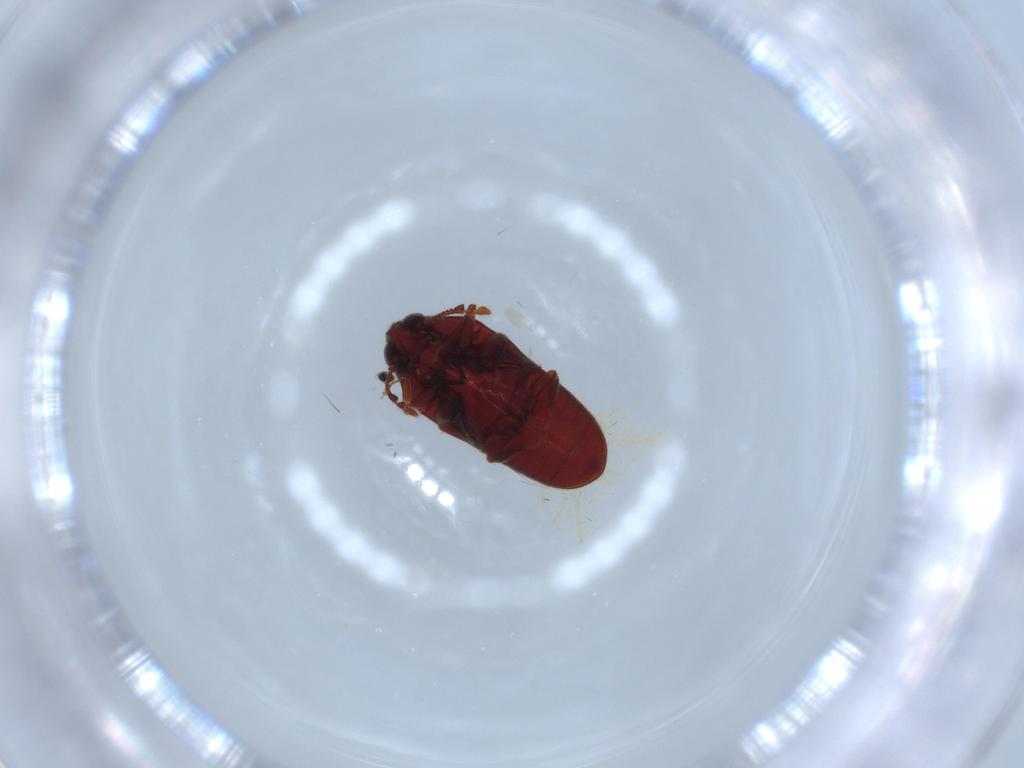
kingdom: Animalia
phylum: Arthropoda
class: Insecta
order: Coleoptera
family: Throscidae
